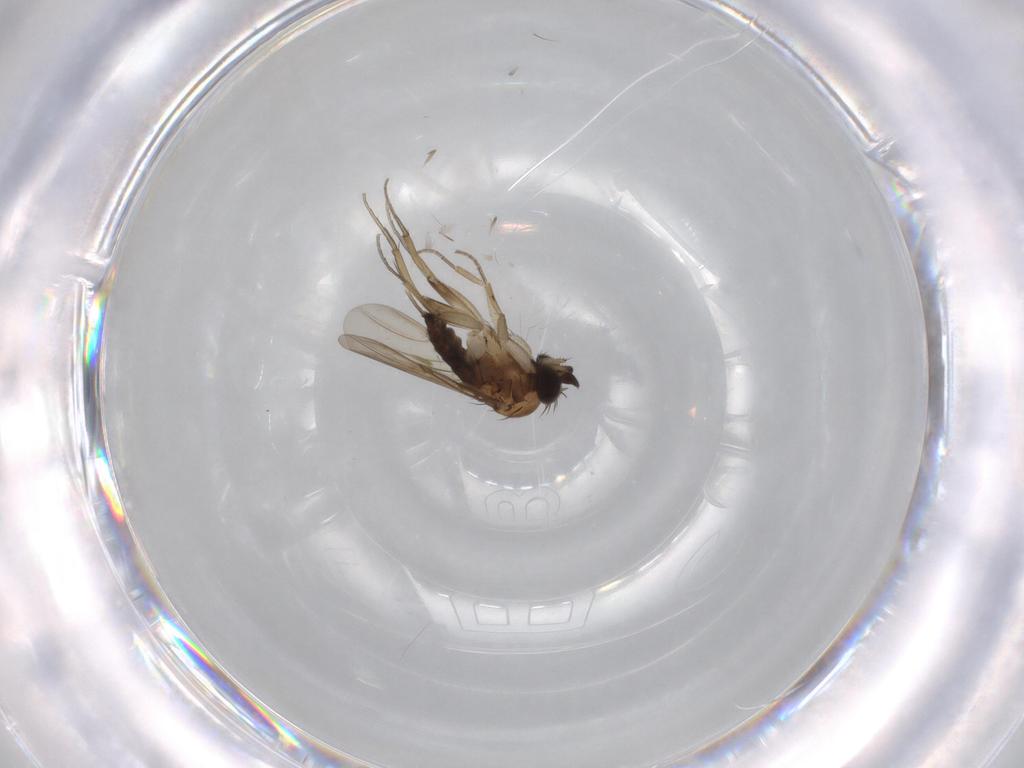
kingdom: Animalia
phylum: Arthropoda
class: Insecta
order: Diptera
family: Phoridae
